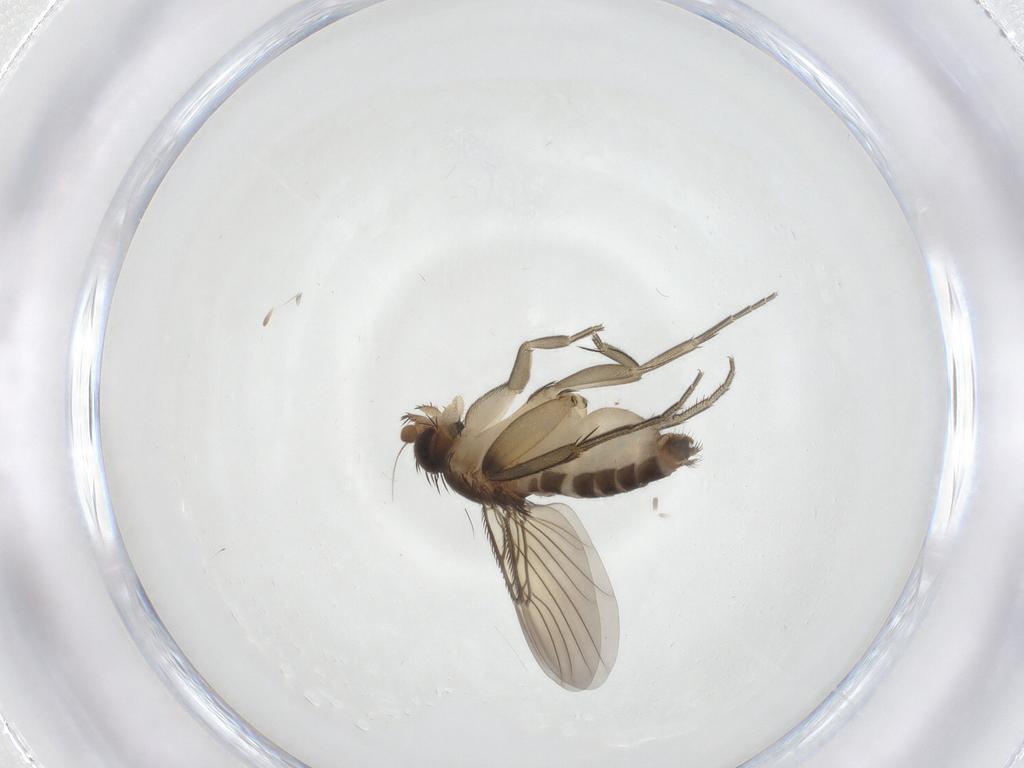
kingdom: Animalia
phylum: Arthropoda
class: Insecta
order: Diptera
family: Phoridae
